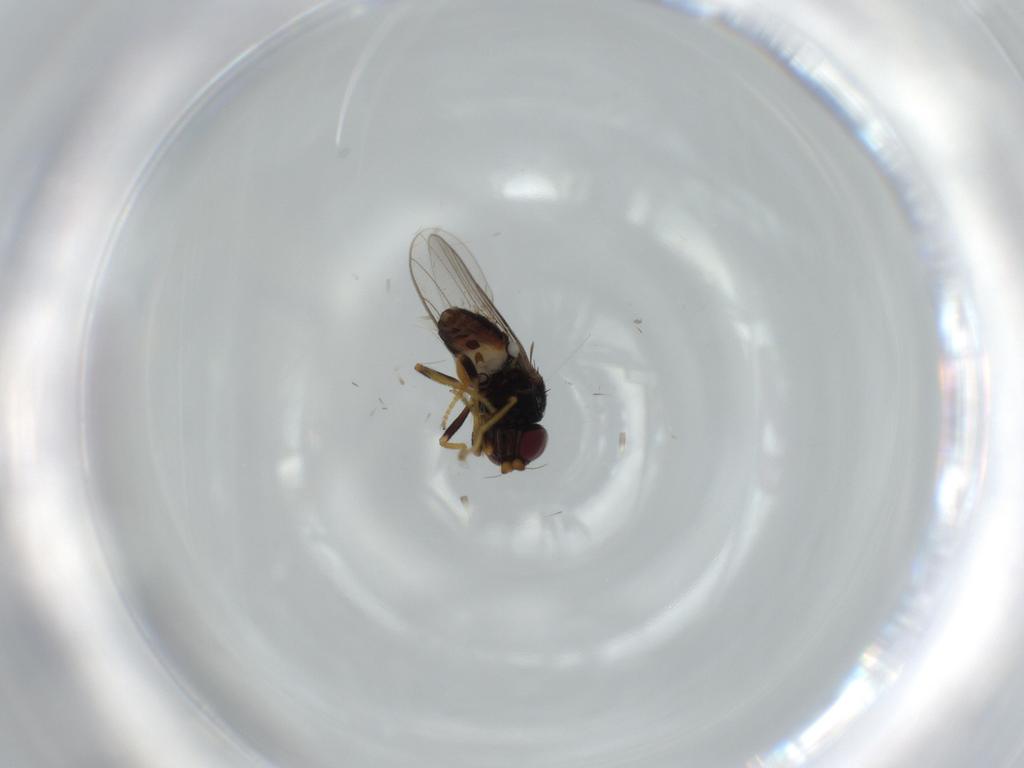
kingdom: Animalia
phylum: Arthropoda
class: Insecta
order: Diptera
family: Chloropidae
